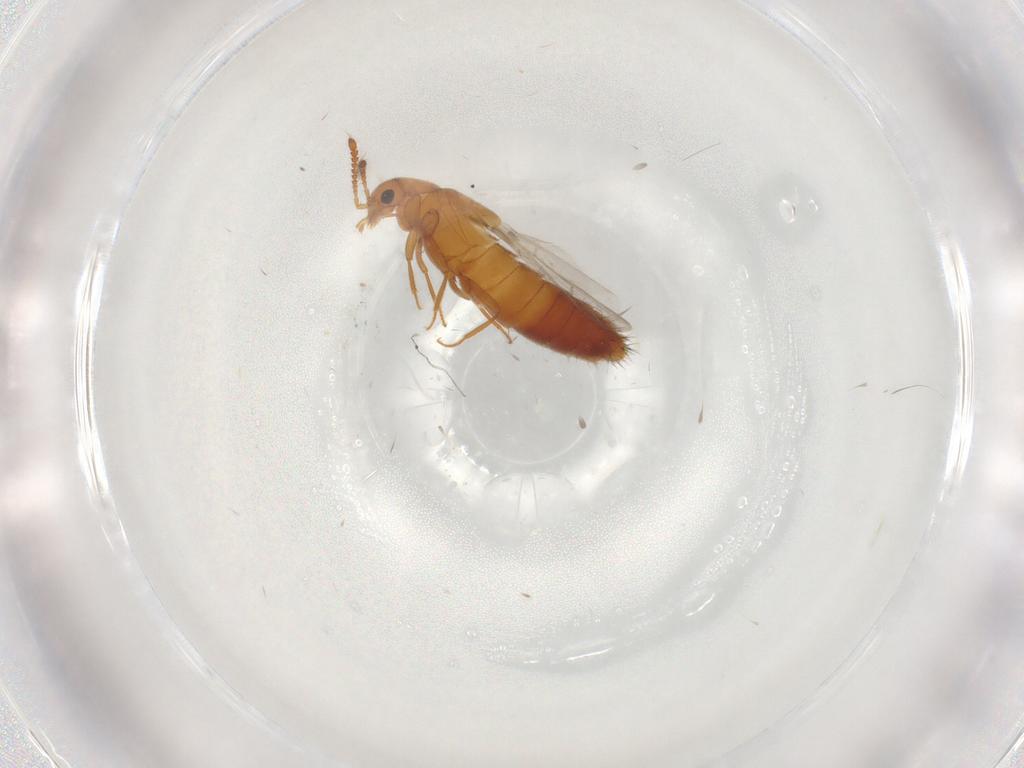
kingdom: Animalia
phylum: Arthropoda
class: Insecta
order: Coleoptera
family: Staphylinidae
